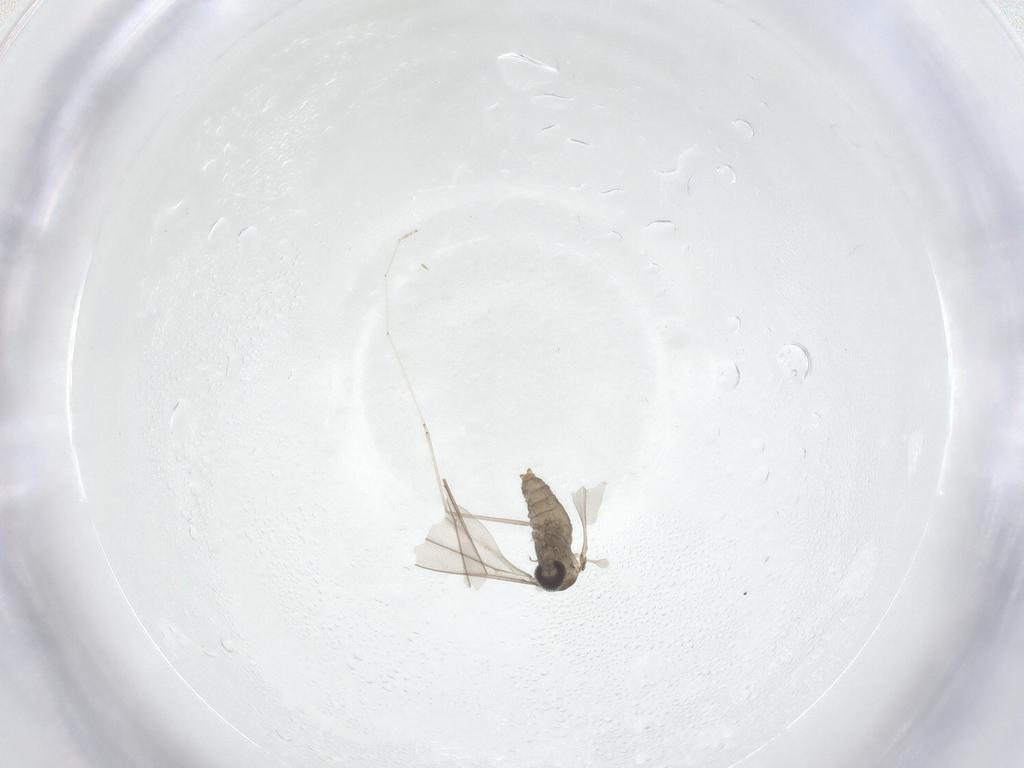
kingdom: Animalia
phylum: Arthropoda
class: Insecta
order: Diptera
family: Cecidomyiidae
